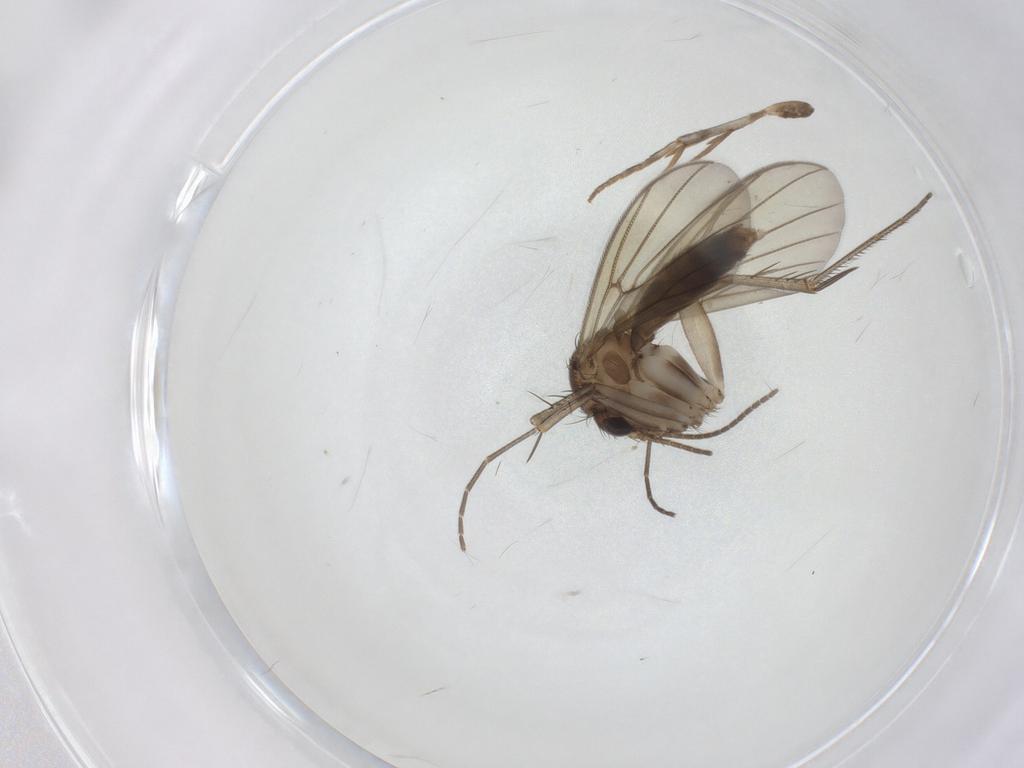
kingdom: Animalia
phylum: Arthropoda
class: Insecta
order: Diptera
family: Mycetophilidae
